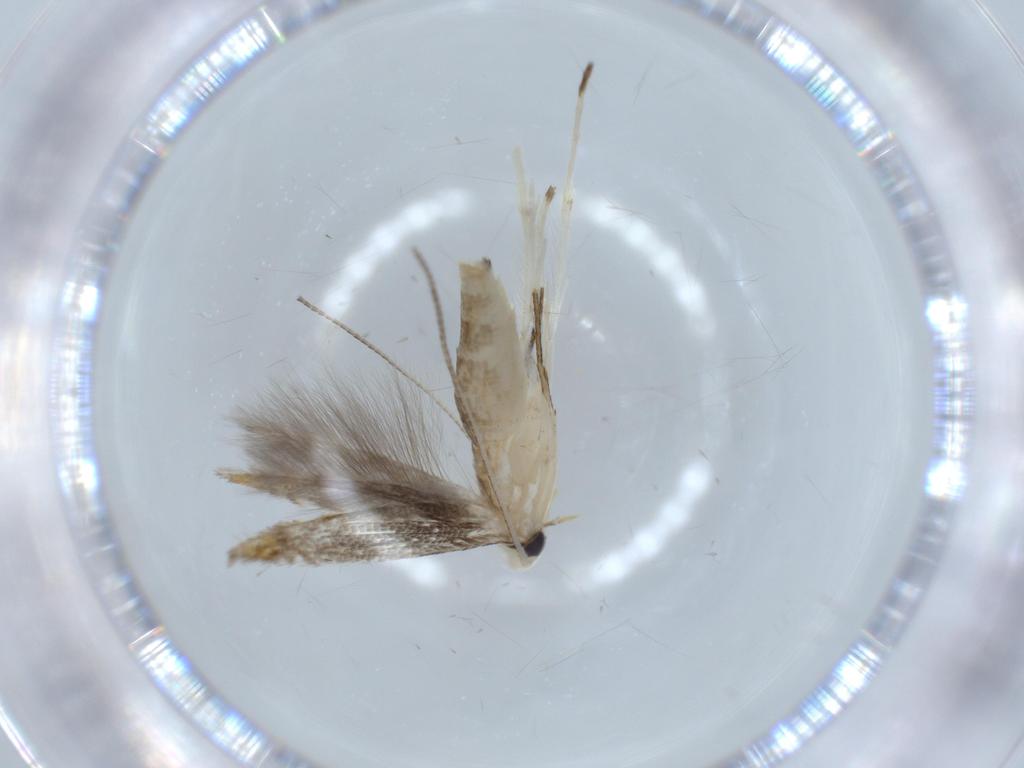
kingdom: Animalia
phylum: Arthropoda
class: Insecta
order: Lepidoptera
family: Gracillariidae
